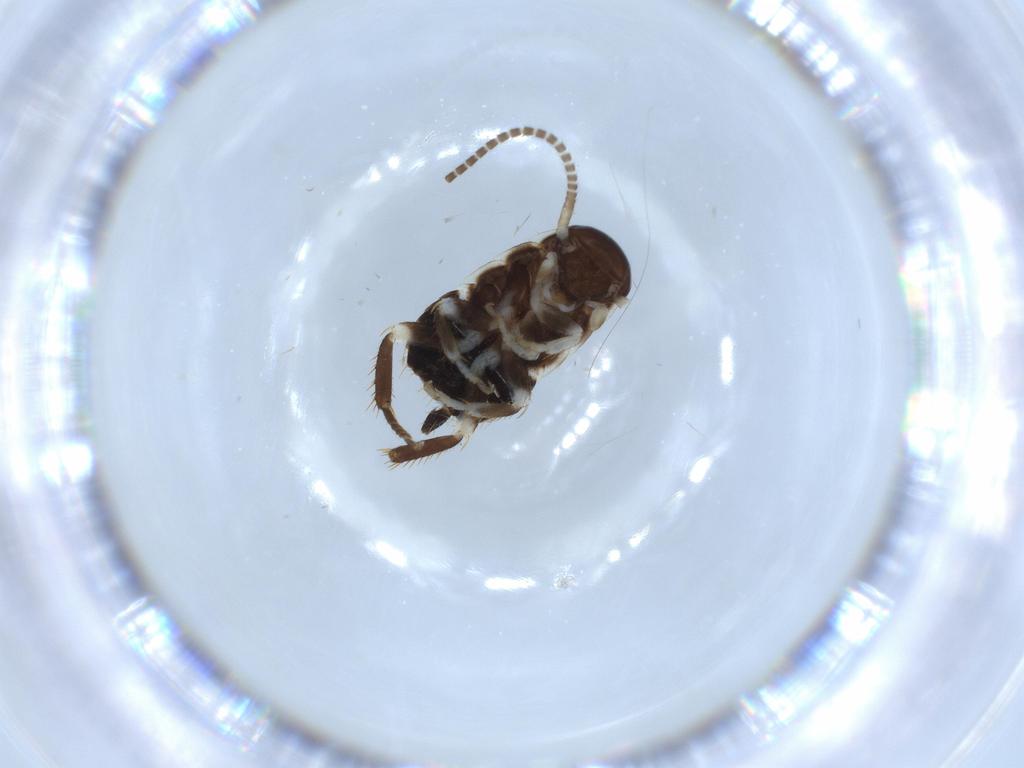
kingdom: Animalia
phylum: Arthropoda
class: Insecta
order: Blattodea
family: Ectobiidae
